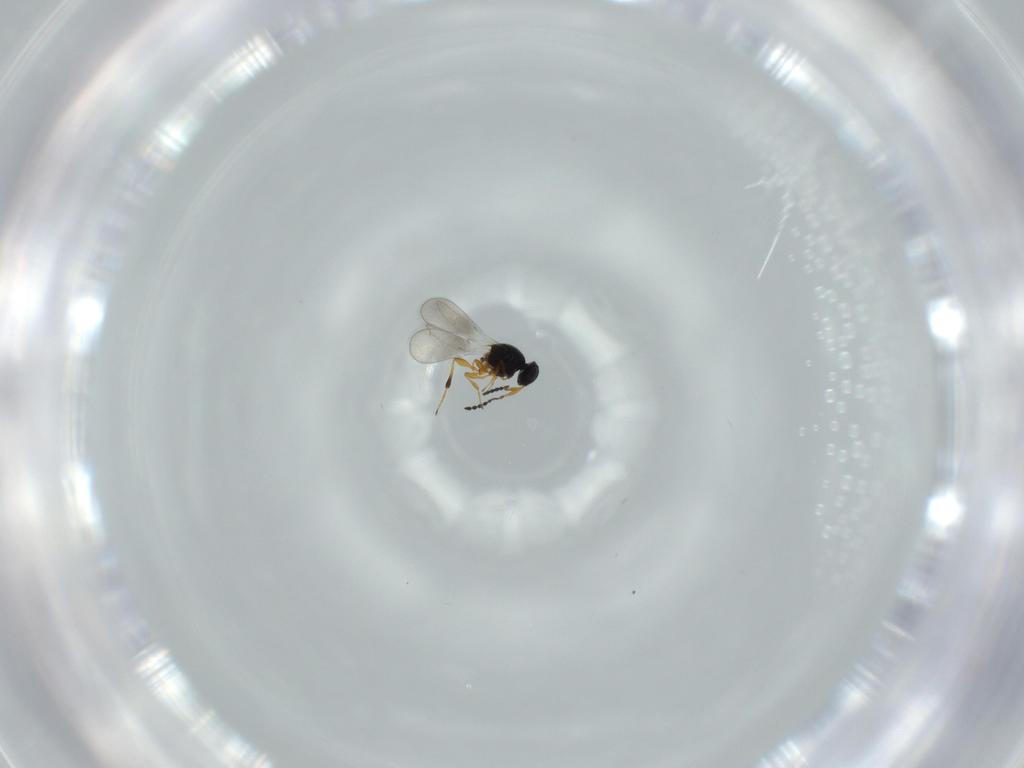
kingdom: Animalia
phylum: Arthropoda
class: Insecta
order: Hymenoptera
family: Platygastridae
